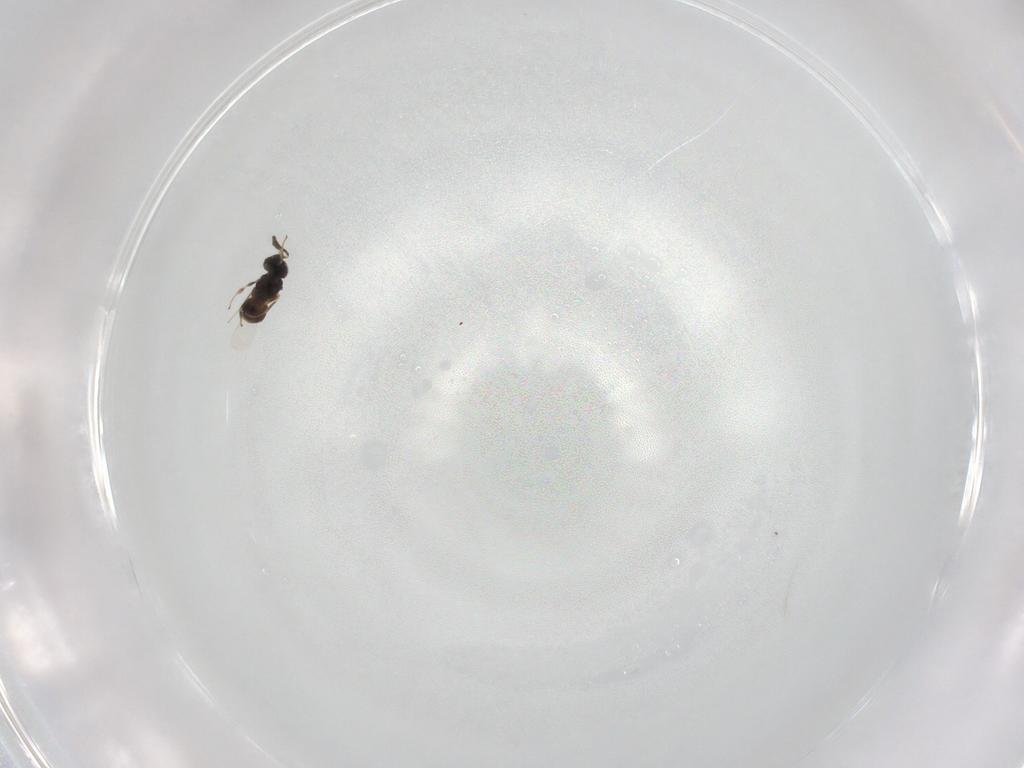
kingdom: Animalia
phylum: Arthropoda
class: Insecta
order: Hymenoptera
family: Scelionidae
